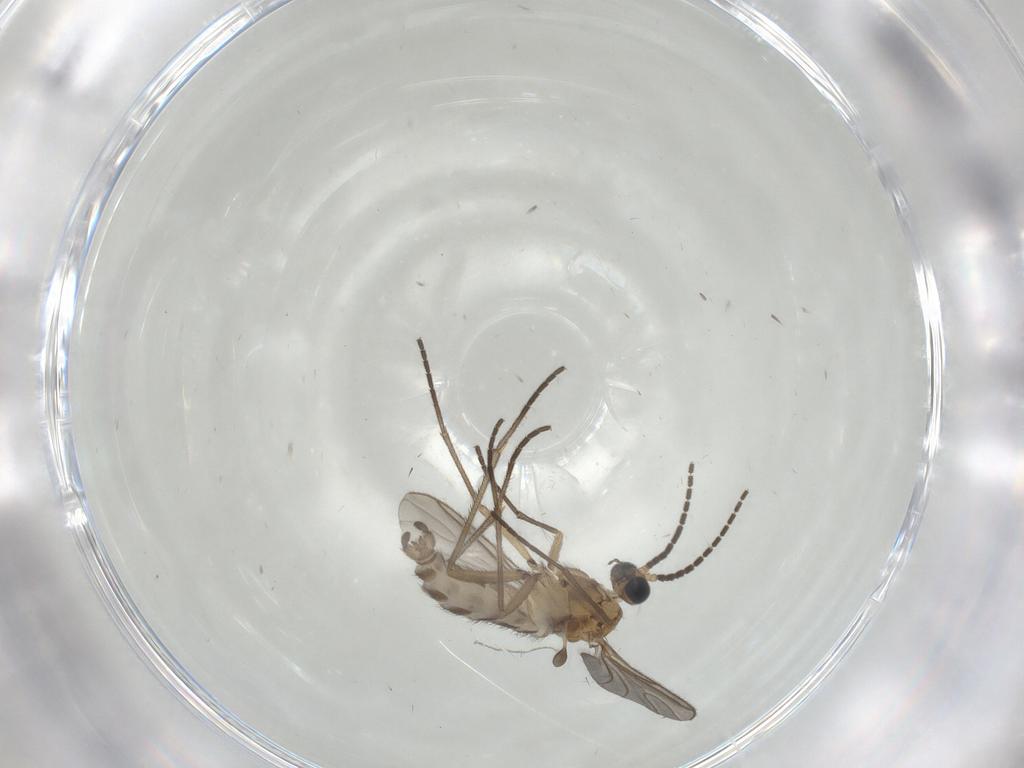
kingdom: Animalia
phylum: Arthropoda
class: Insecta
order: Diptera
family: Sciaridae
